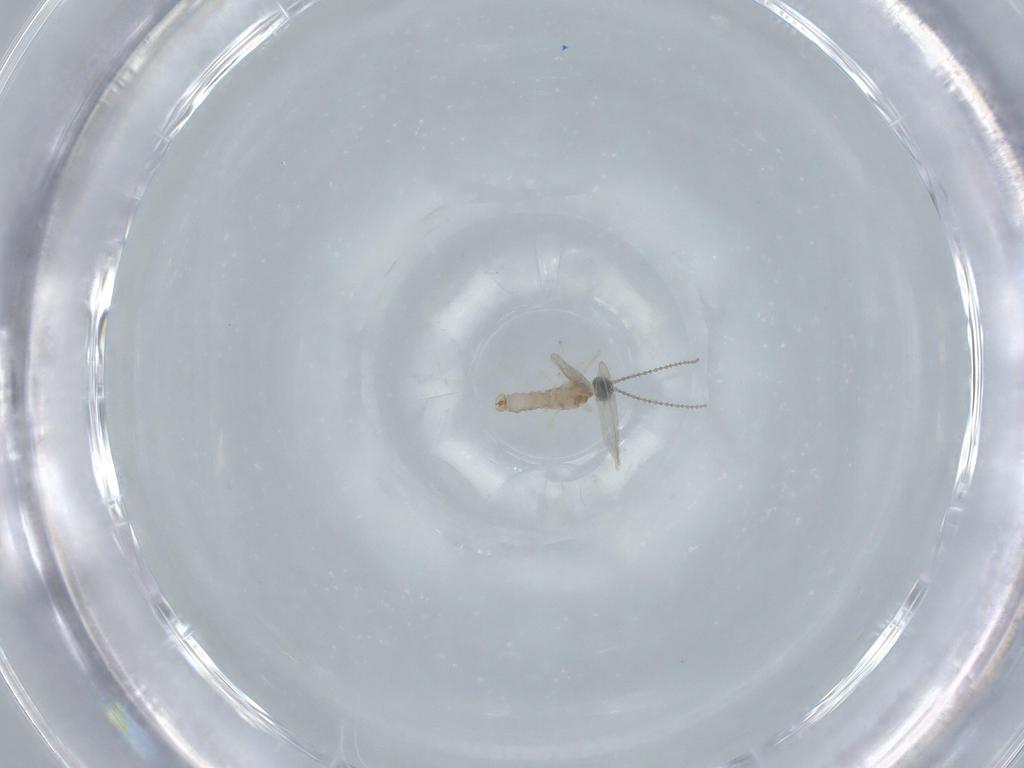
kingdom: Animalia
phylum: Arthropoda
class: Insecta
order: Diptera
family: Cecidomyiidae
